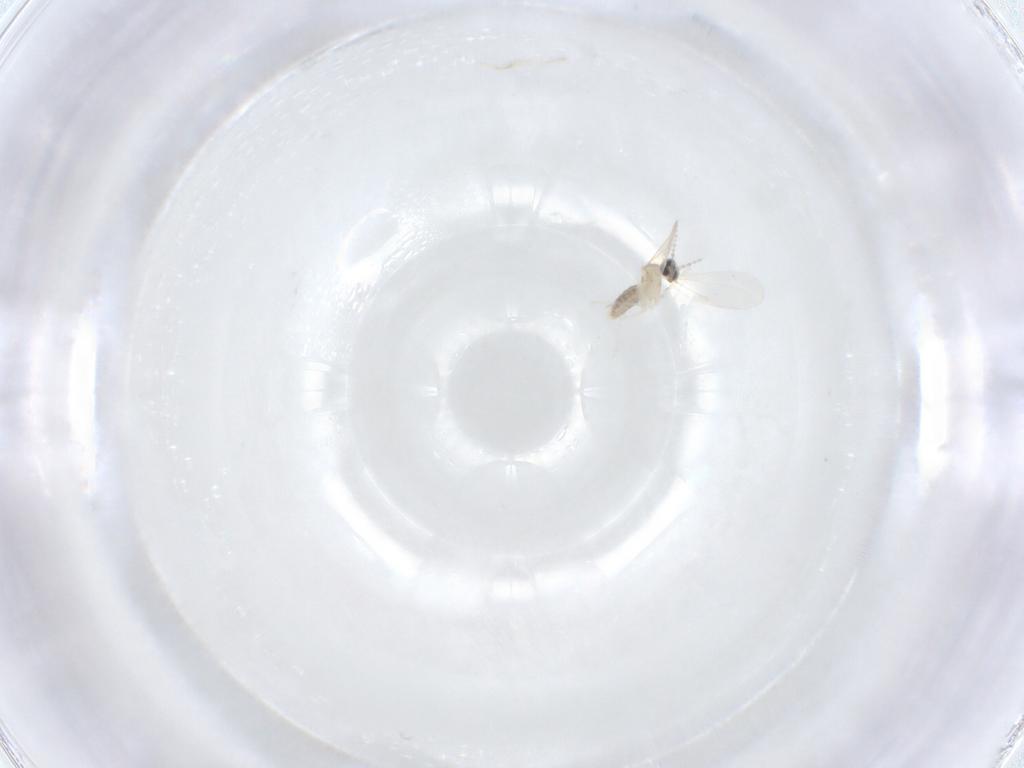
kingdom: Animalia
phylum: Arthropoda
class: Insecta
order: Diptera
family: Cecidomyiidae
